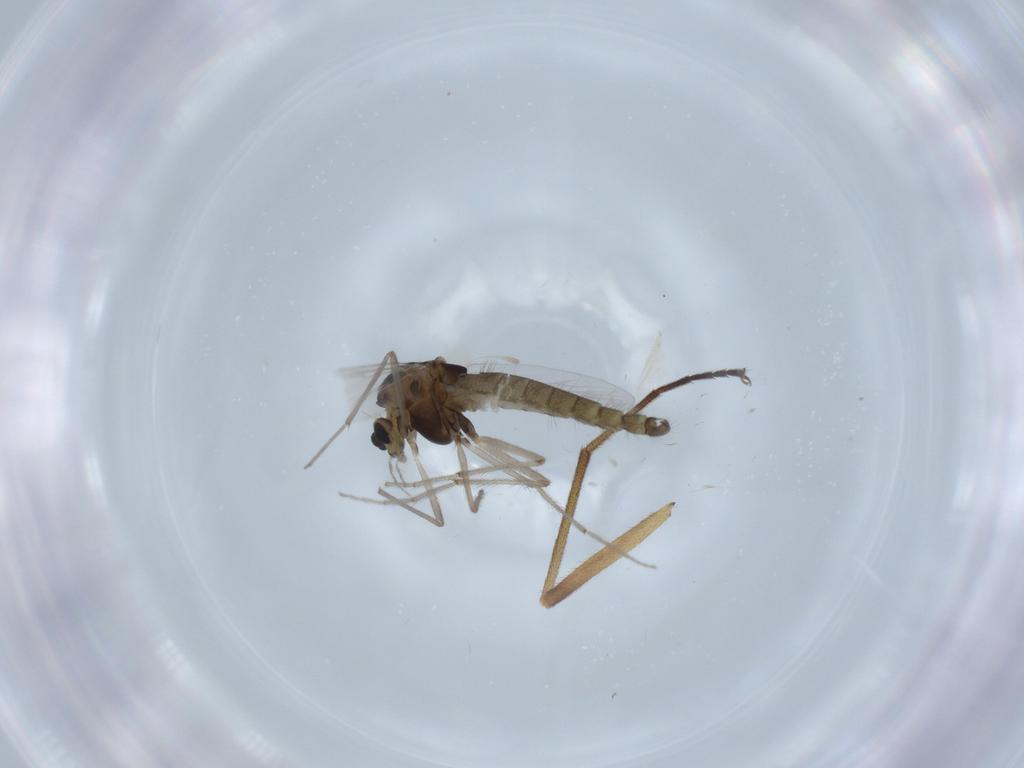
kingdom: Animalia
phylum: Arthropoda
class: Insecta
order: Diptera
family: Chironomidae
